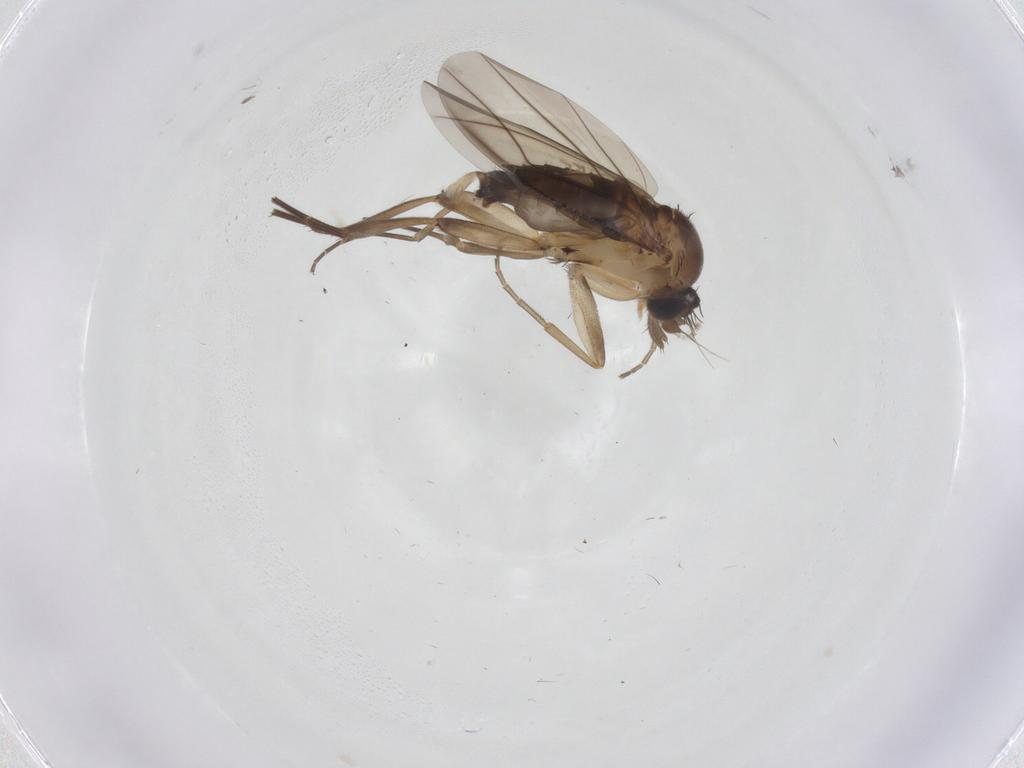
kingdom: Animalia
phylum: Arthropoda
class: Insecta
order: Diptera
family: Phoridae
